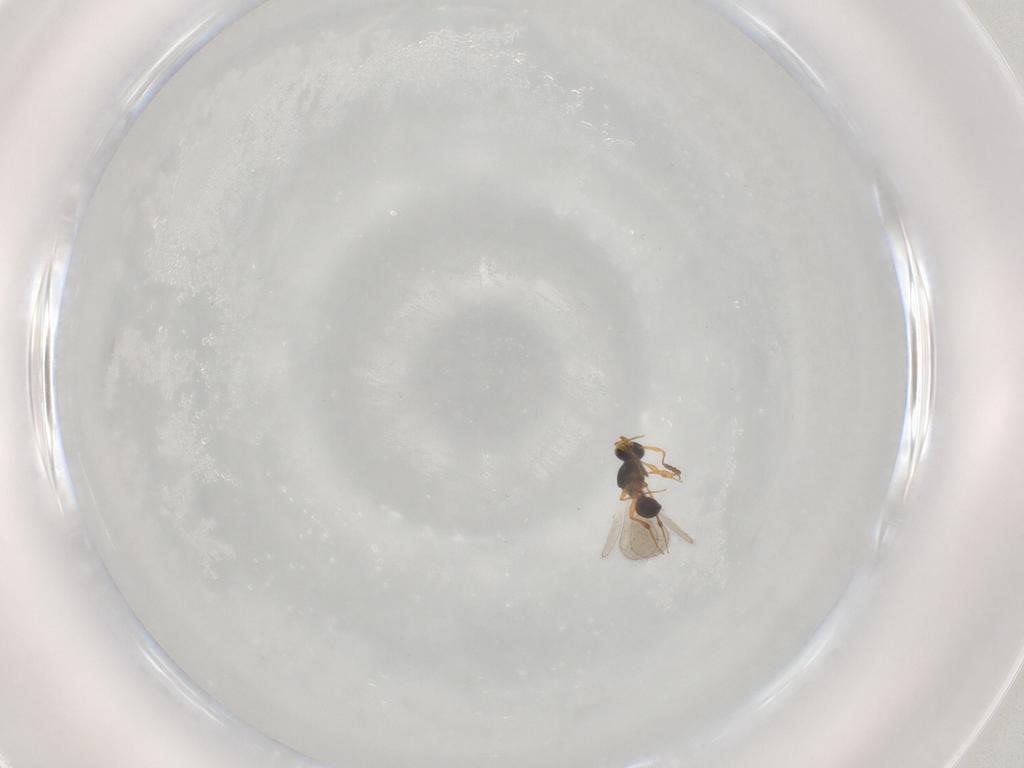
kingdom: Animalia
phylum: Arthropoda
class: Insecta
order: Hymenoptera
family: Platygastridae
